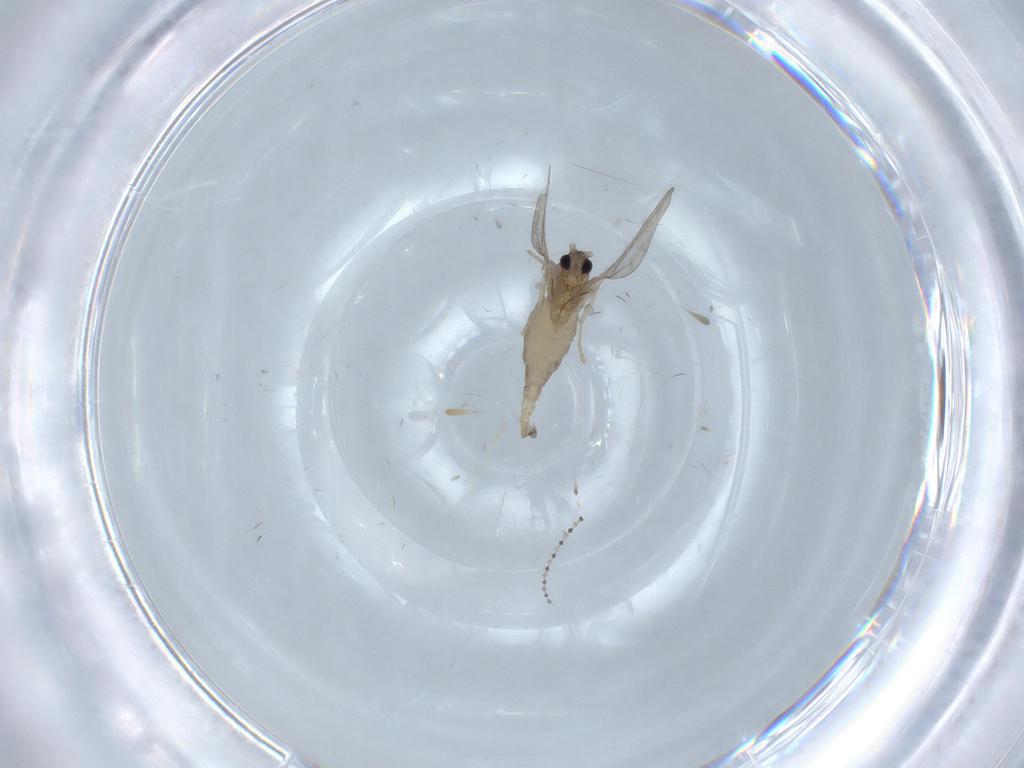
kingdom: Animalia
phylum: Arthropoda
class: Insecta
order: Diptera
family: Cecidomyiidae
